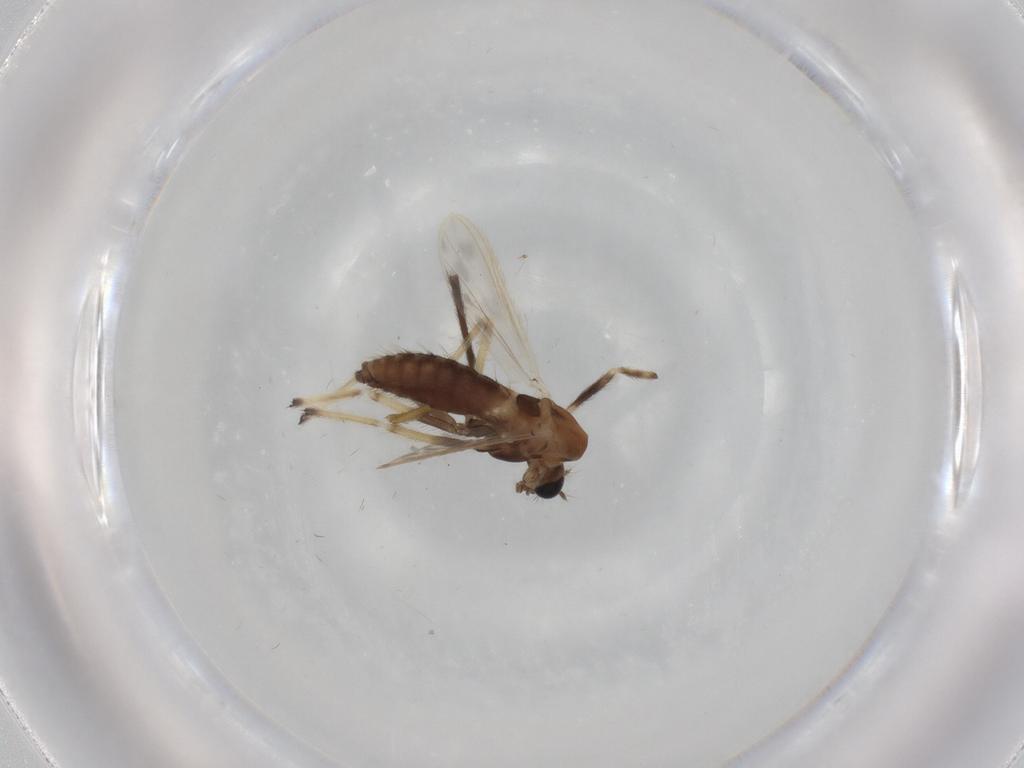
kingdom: Animalia
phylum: Arthropoda
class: Insecta
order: Diptera
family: Chironomidae
